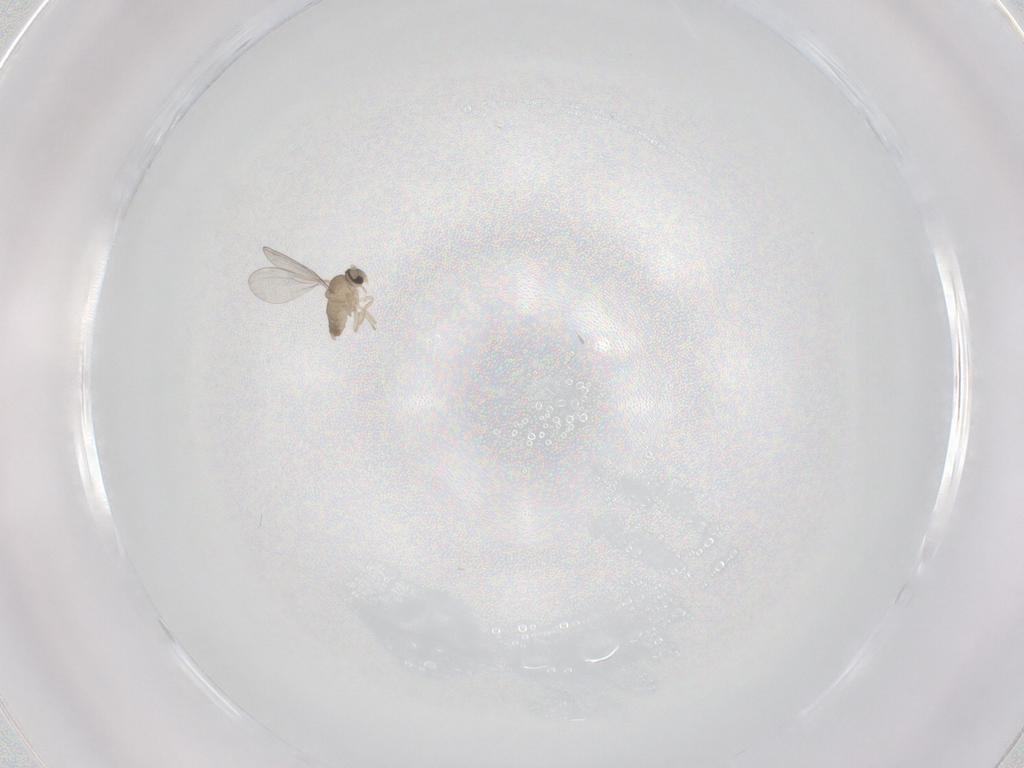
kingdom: Animalia
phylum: Arthropoda
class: Insecta
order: Diptera
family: Cecidomyiidae
